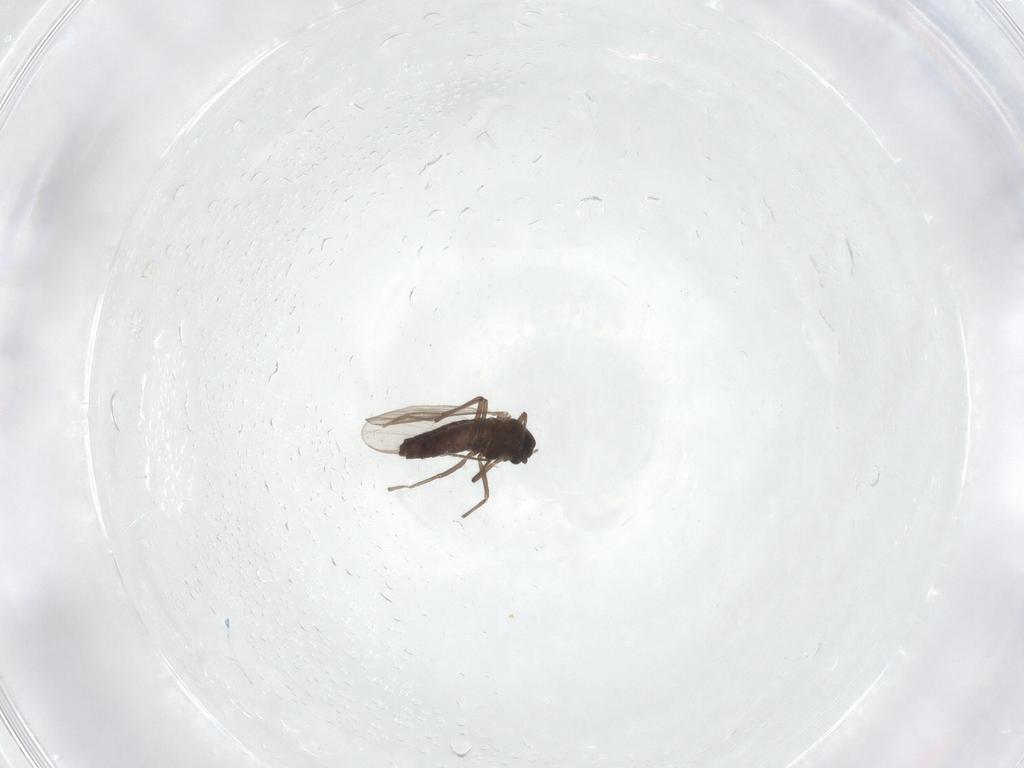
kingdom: Animalia
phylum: Arthropoda
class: Insecta
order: Diptera
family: Chironomidae
